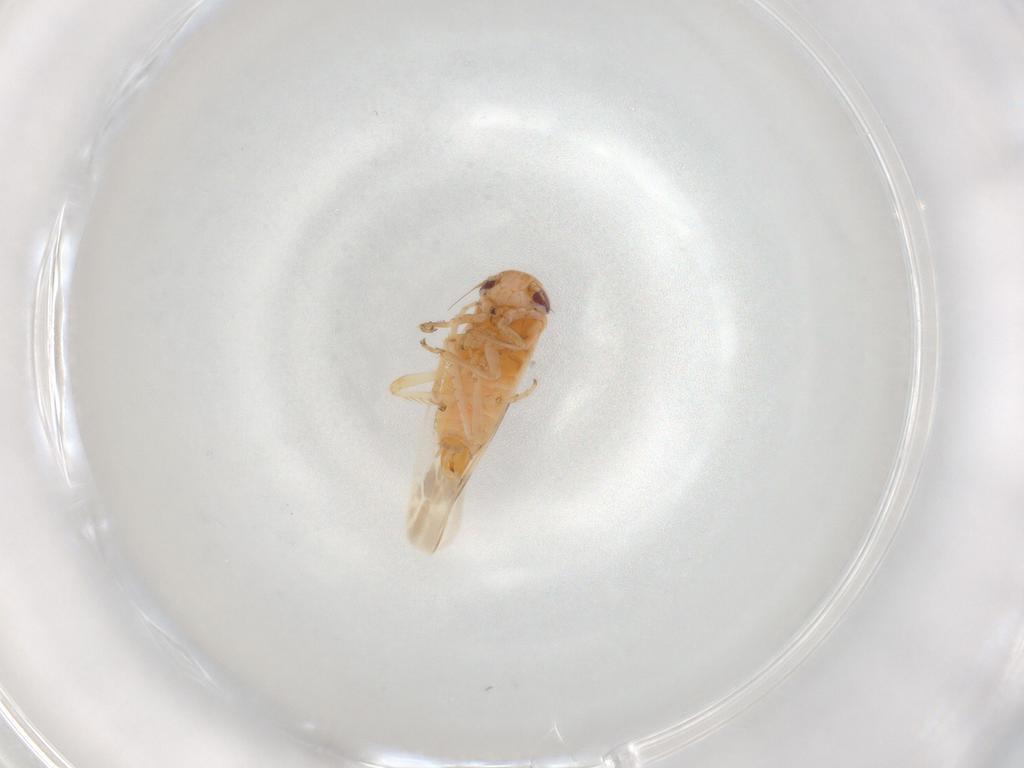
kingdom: Animalia
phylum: Arthropoda
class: Insecta
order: Hemiptera
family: Cicadellidae
